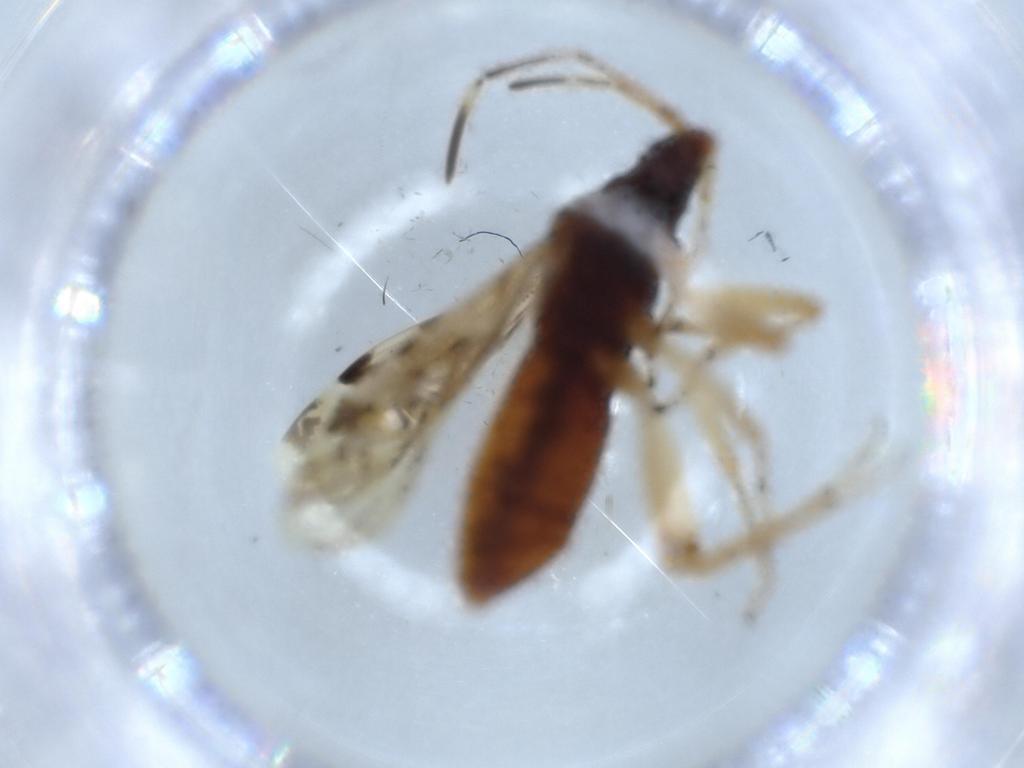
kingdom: Animalia
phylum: Arthropoda
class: Insecta
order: Hemiptera
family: Rhyparochromidae
